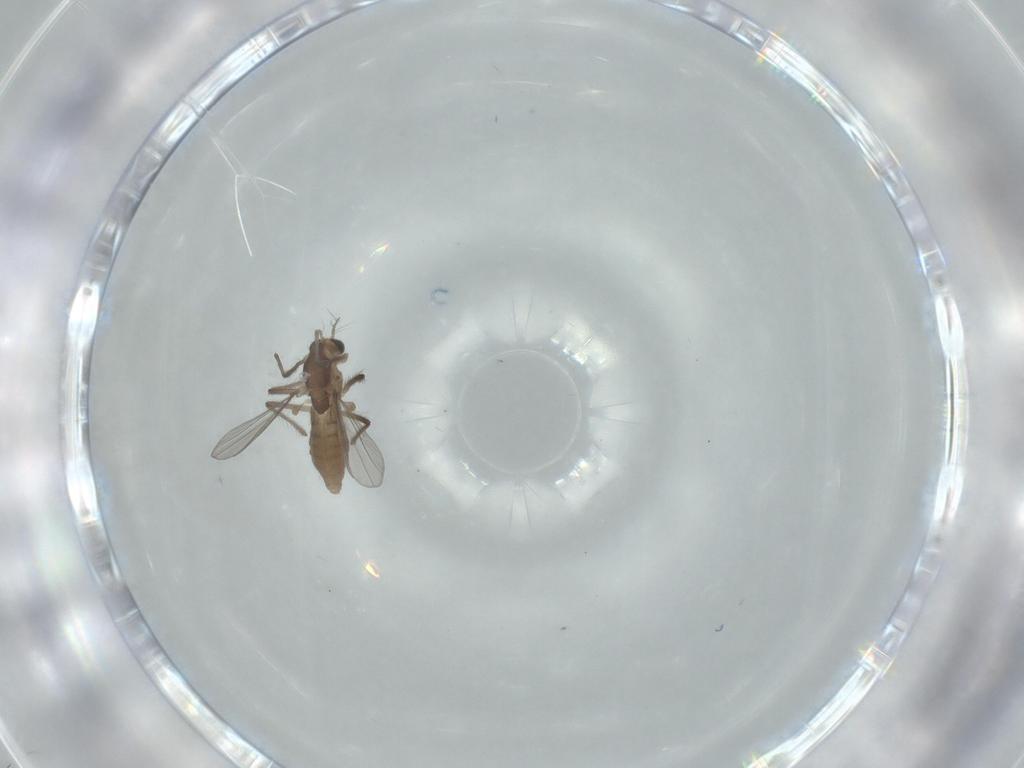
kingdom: Animalia
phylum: Arthropoda
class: Insecta
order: Diptera
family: Chironomidae
